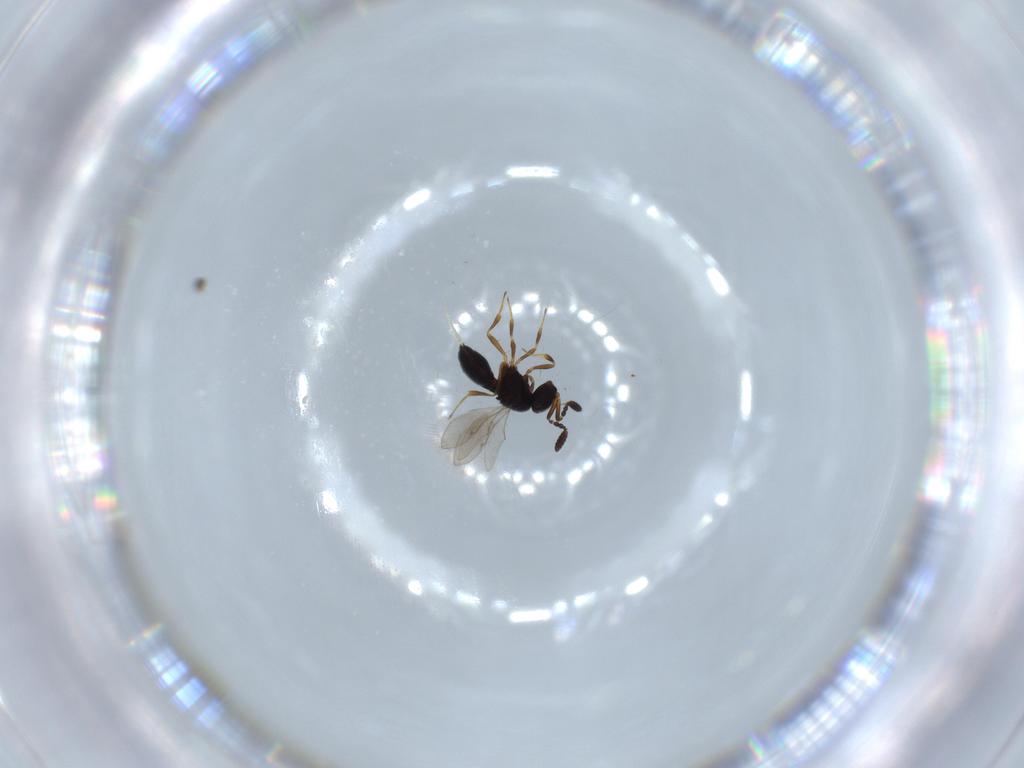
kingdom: Animalia
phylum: Arthropoda
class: Insecta
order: Hymenoptera
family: Scelionidae
